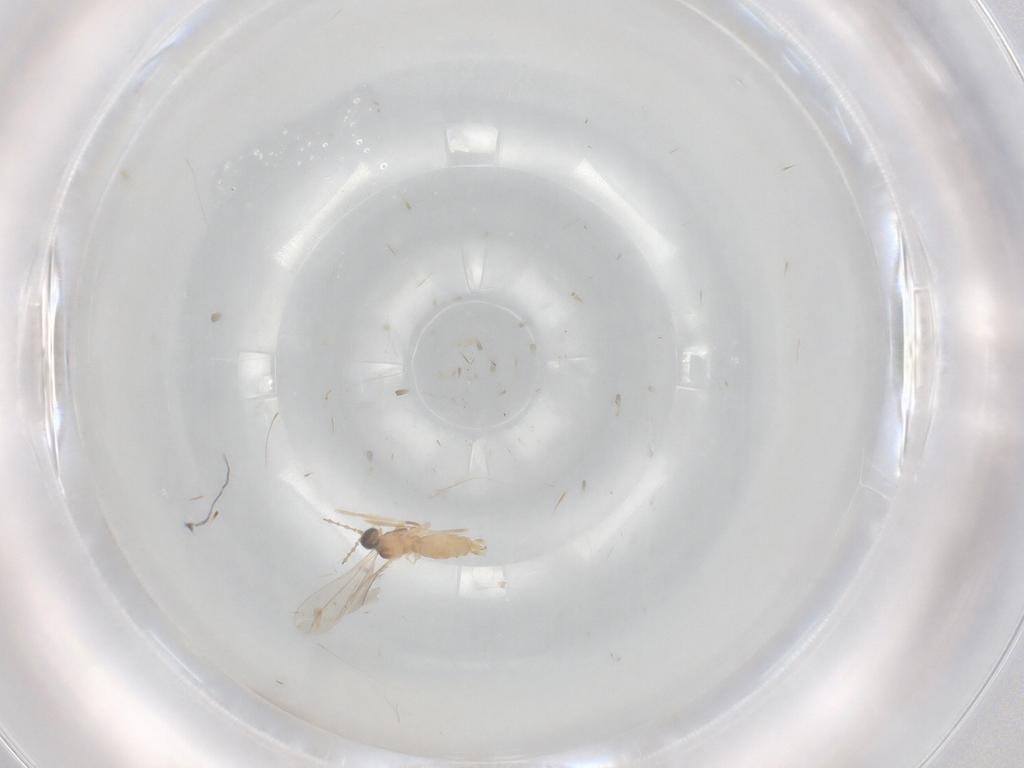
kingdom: Animalia
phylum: Arthropoda
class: Insecta
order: Diptera
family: Cecidomyiidae
